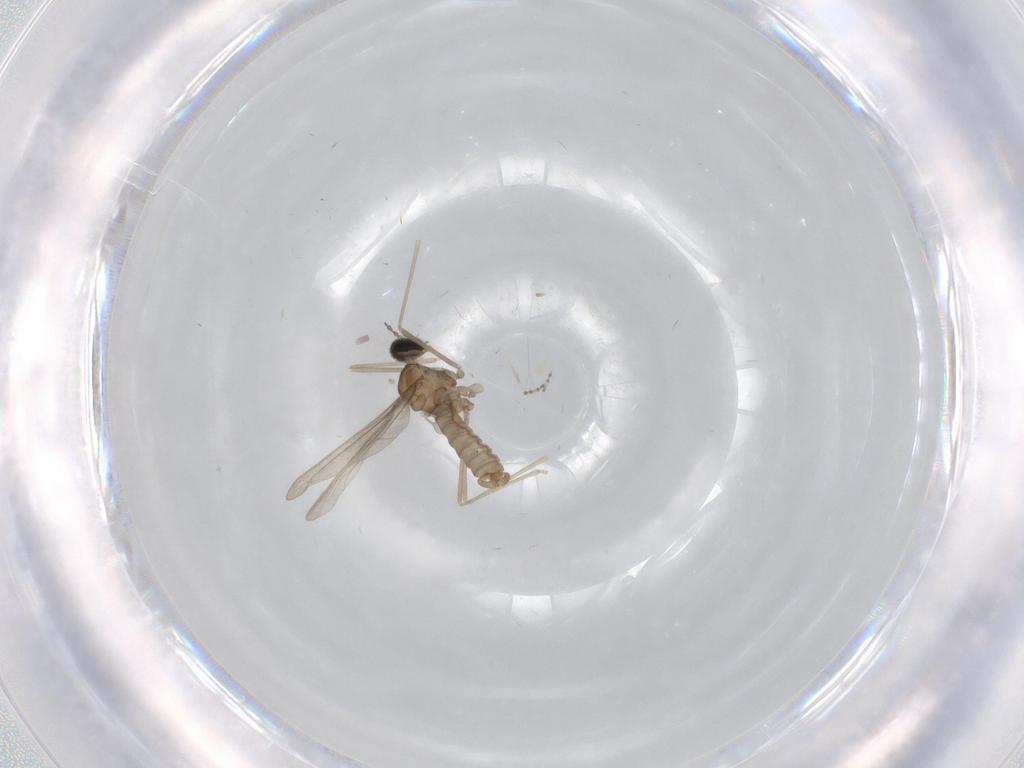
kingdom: Animalia
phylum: Arthropoda
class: Insecta
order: Diptera
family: Cecidomyiidae
